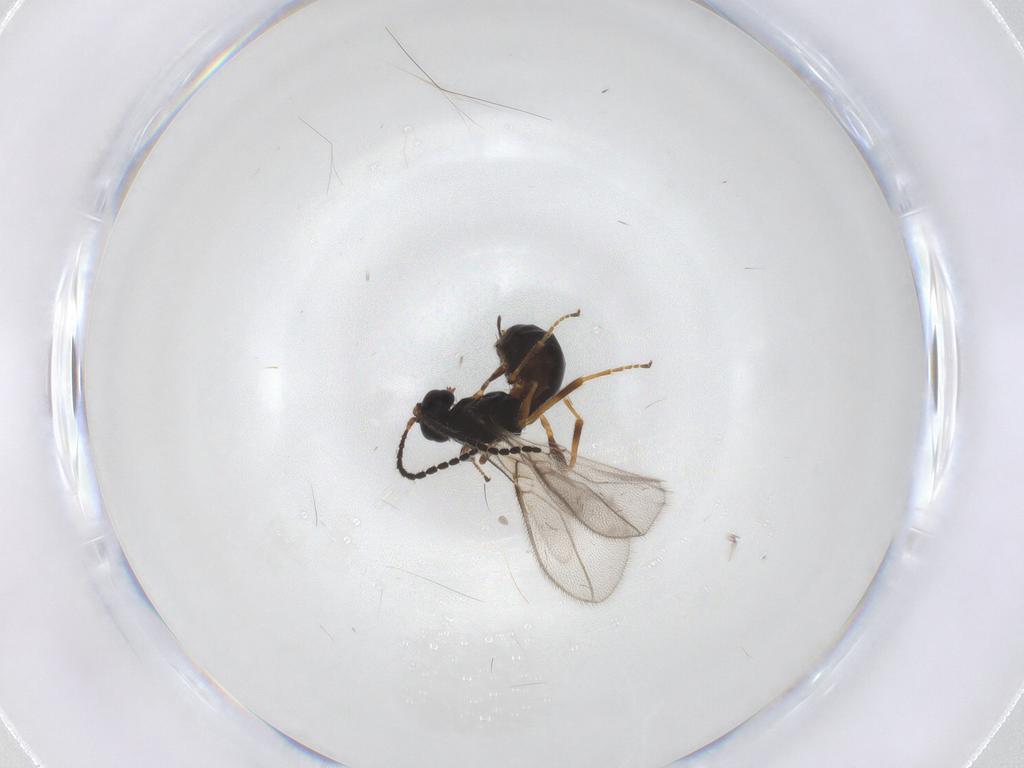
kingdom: Animalia
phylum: Arthropoda
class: Insecta
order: Hymenoptera
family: Braconidae
